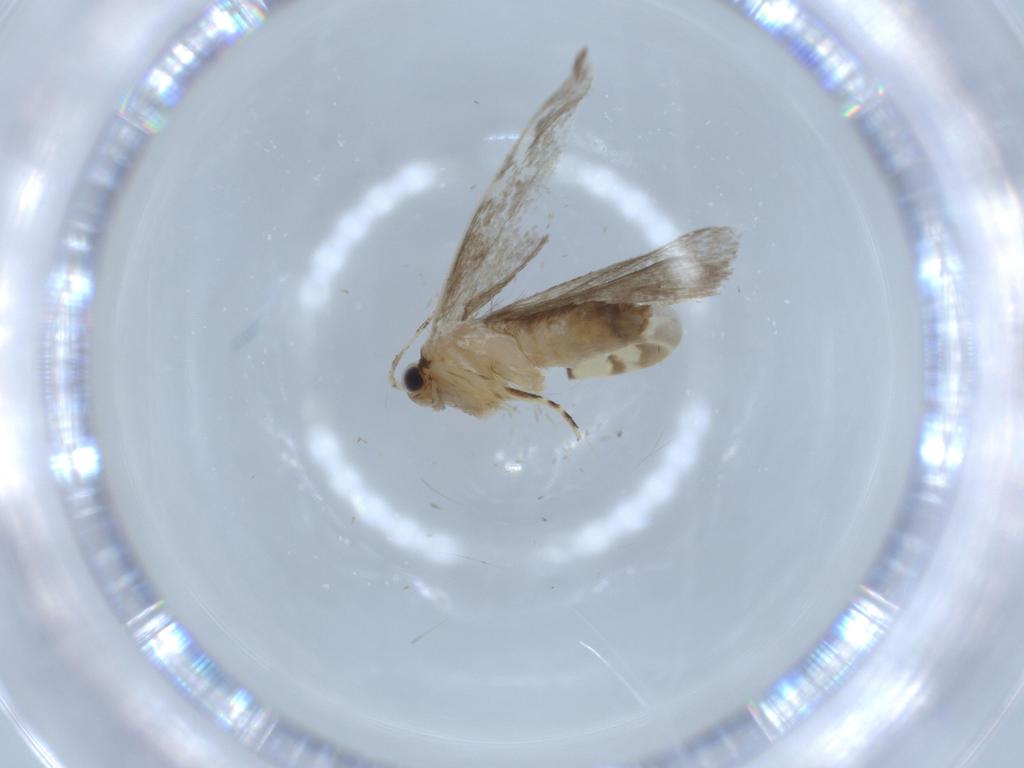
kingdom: Animalia
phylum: Arthropoda
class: Insecta
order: Lepidoptera
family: Tineidae
